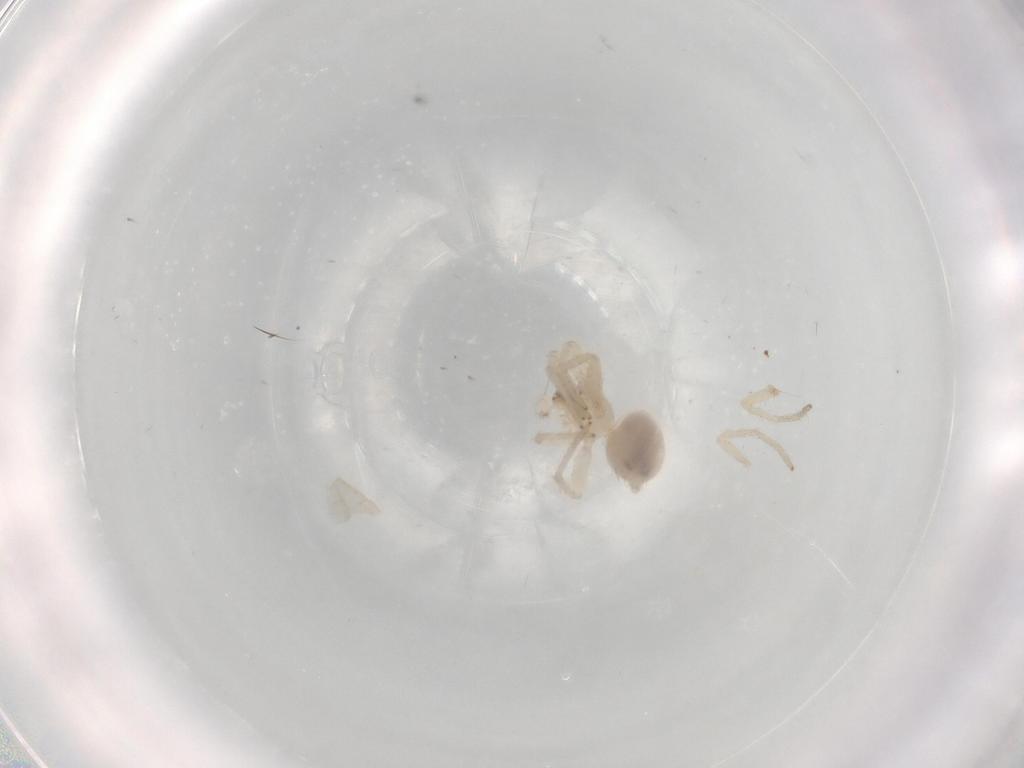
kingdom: Animalia
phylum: Arthropoda
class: Arachnida
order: Araneae
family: Oonopidae
